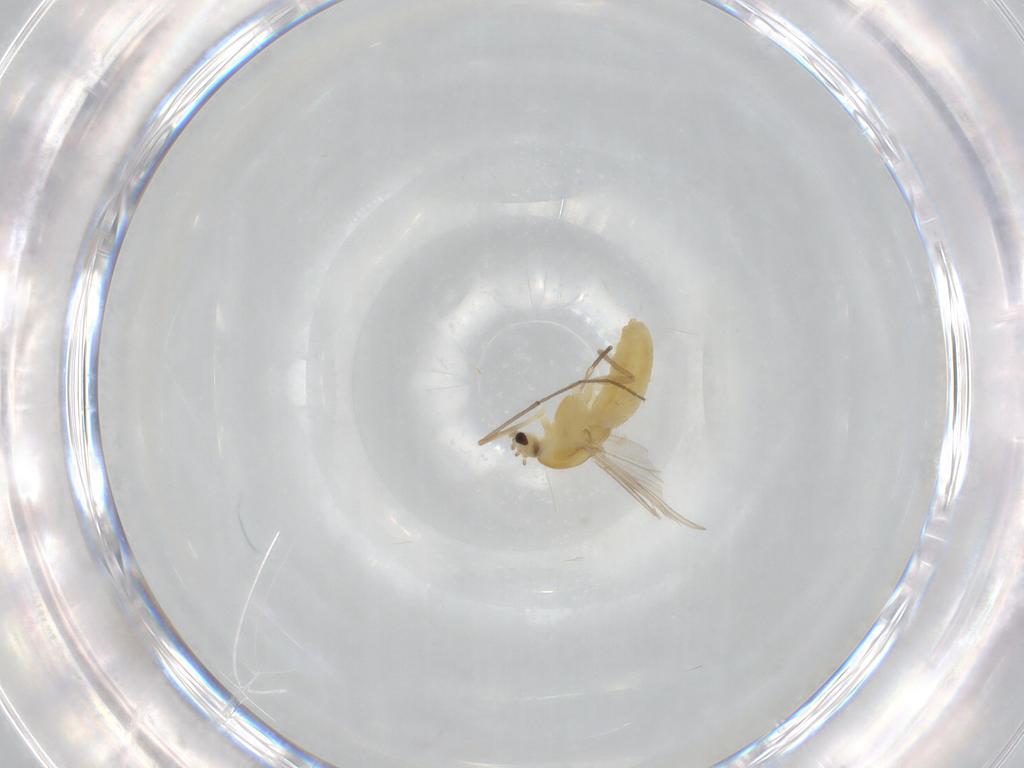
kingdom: Animalia
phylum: Arthropoda
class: Insecta
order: Diptera
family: Chironomidae
